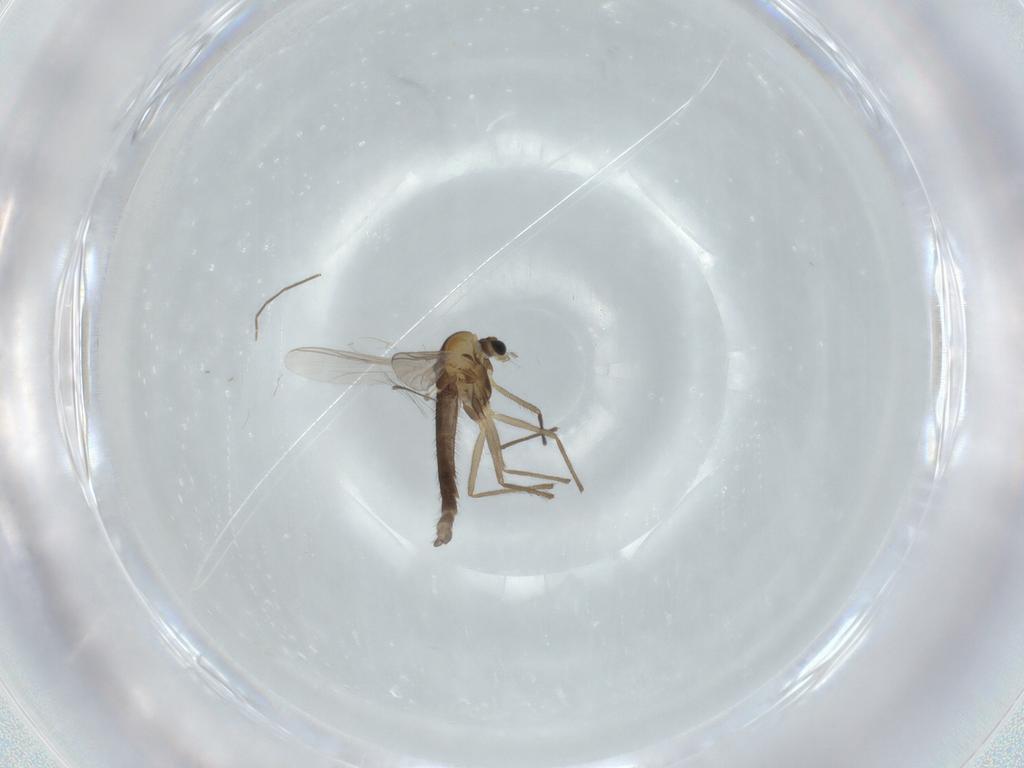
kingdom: Animalia
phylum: Arthropoda
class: Insecta
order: Diptera
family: Chironomidae
